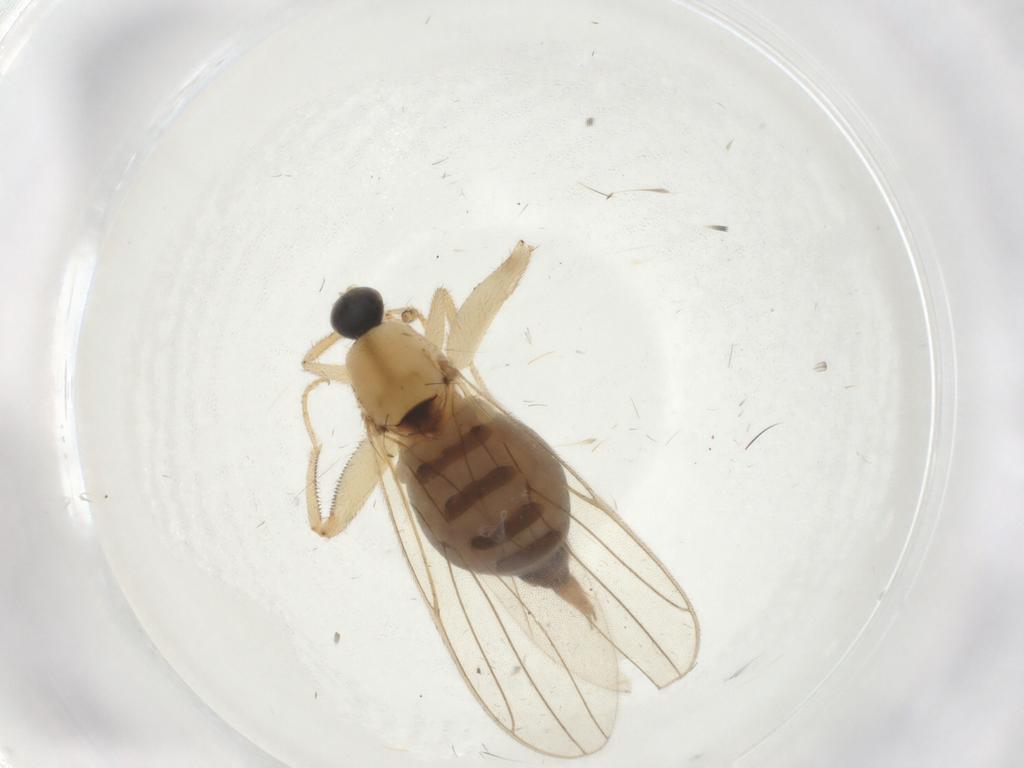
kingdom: Animalia
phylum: Arthropoda
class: Insecta
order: Diptera
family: Hybotidae
